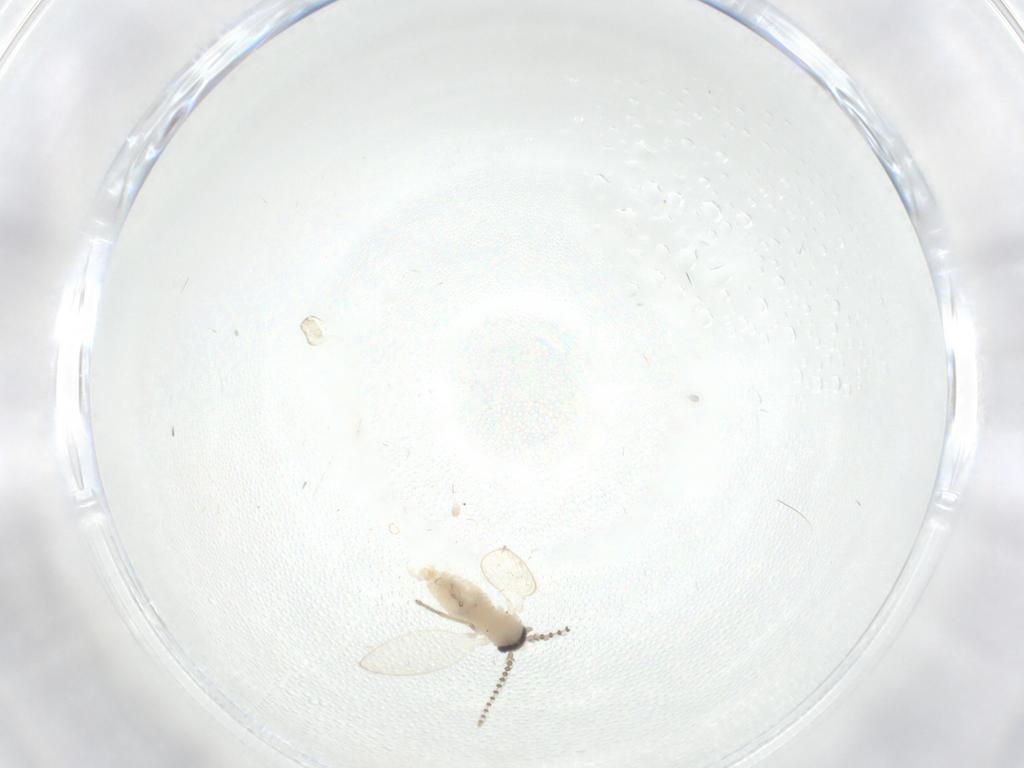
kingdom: Animalia
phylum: Arthropoda
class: Insecta
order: Diptera
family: Psychodidae
